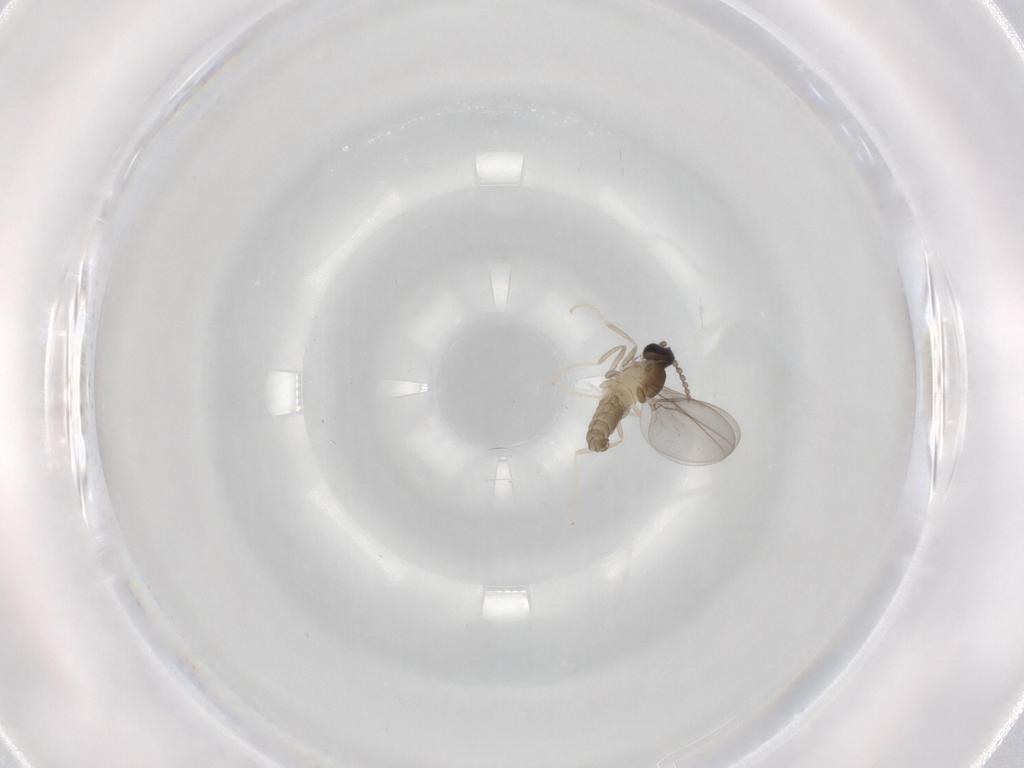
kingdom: Animalia
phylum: Arthropoda
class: Insecta
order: Diptera
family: Cecidomyiidae
